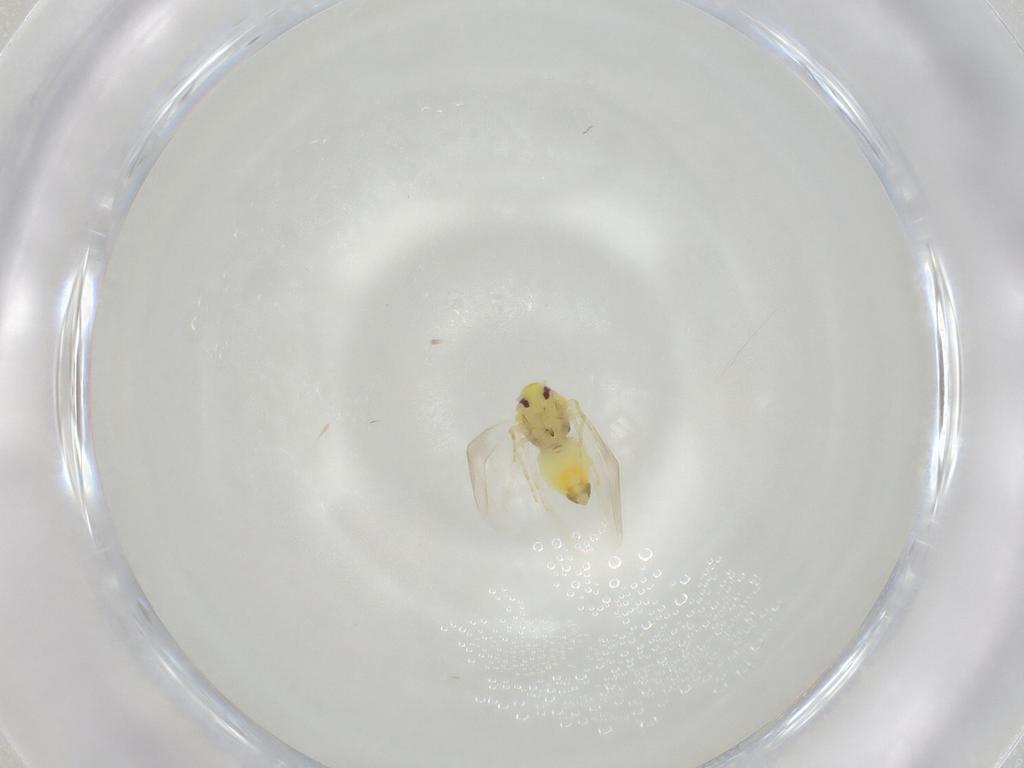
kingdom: Animalia
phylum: Arthropoda
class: Insecta
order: Hemiptera
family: Aleyrodidae
